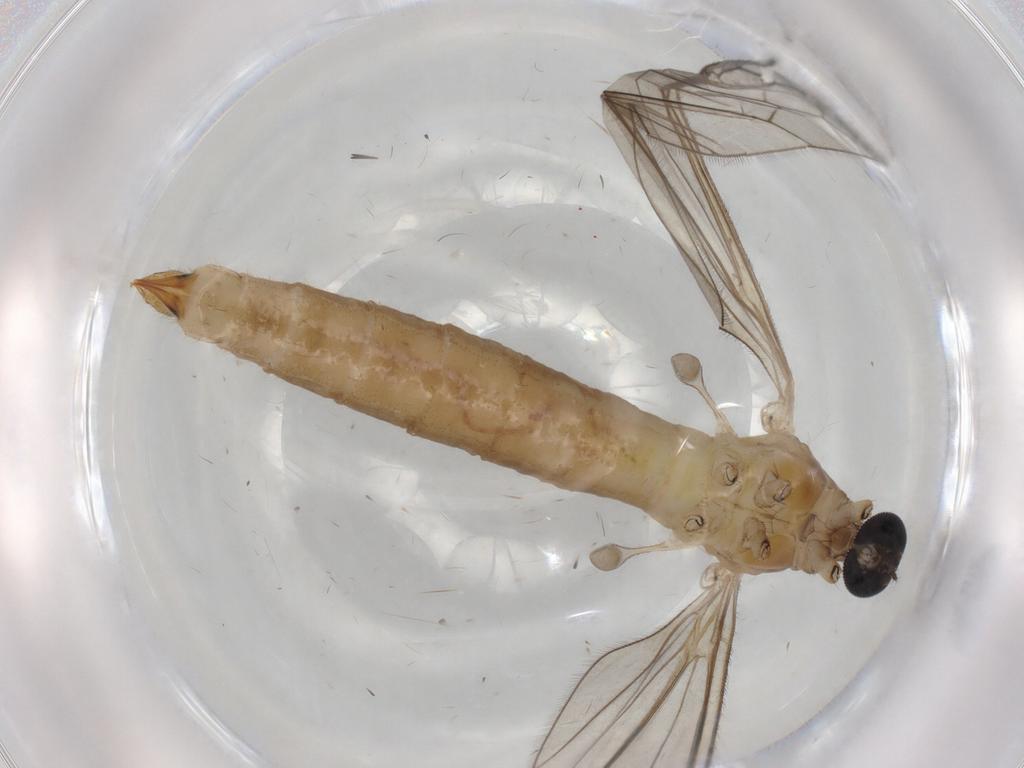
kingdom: Animalia
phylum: Arthropoda
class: Insecta
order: Diptera
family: Limoniidae
